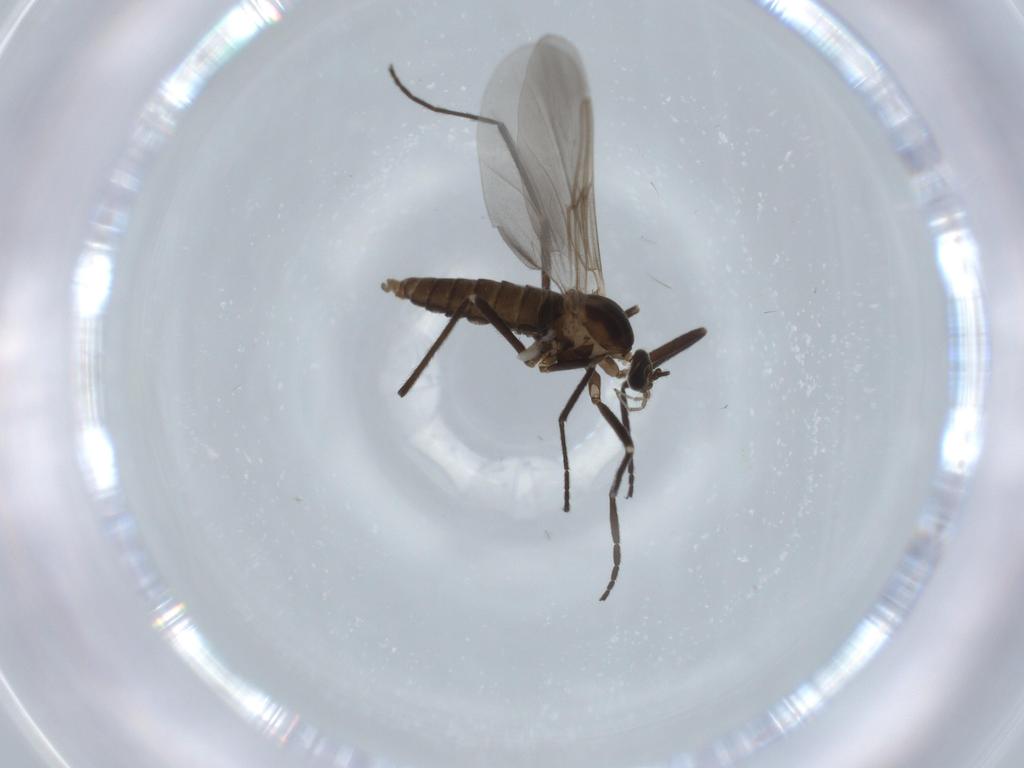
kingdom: Animalia
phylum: Arthropoda
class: Insecta
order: Diptera
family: Cecidomyiidae
